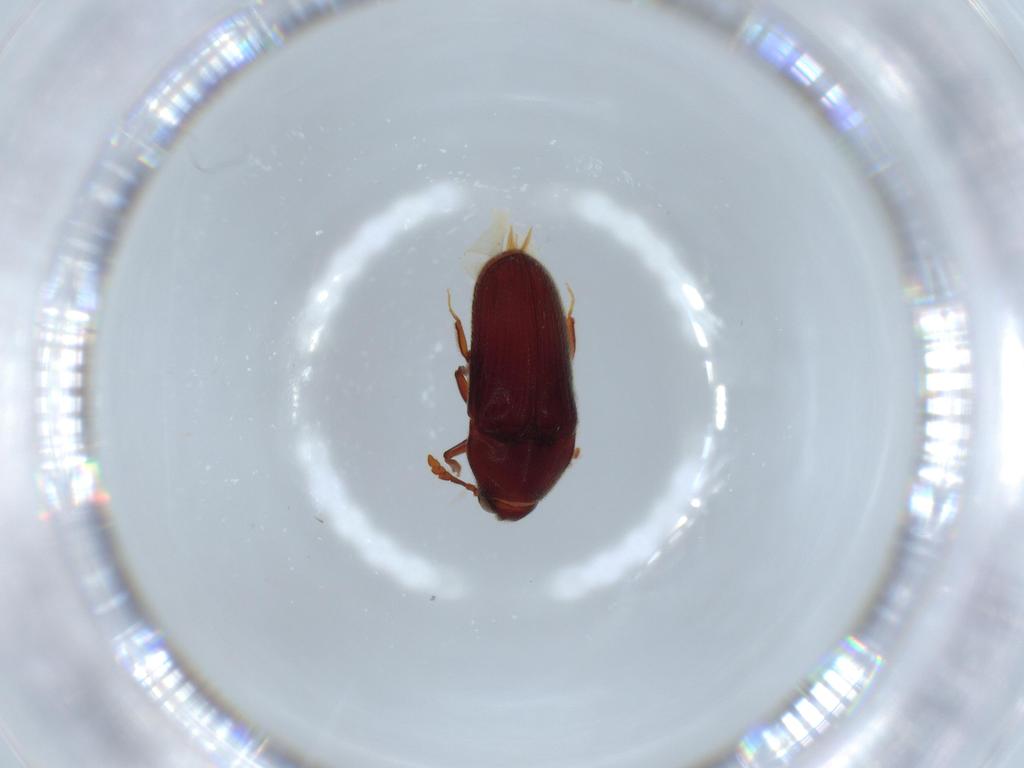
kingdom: Animalia
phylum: Arthropoda
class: Insecta
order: Coleoptera
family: Throscidae
